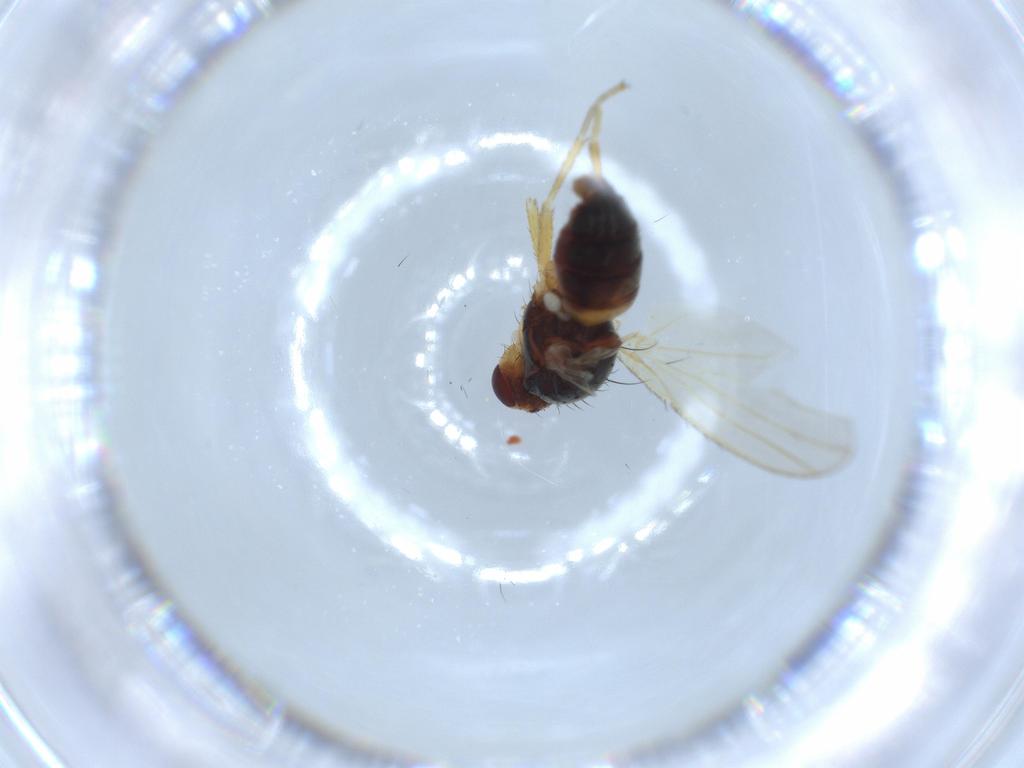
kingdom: Animalia
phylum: Arthropoda
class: Insecta
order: Diptera
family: Heleomyzidae
